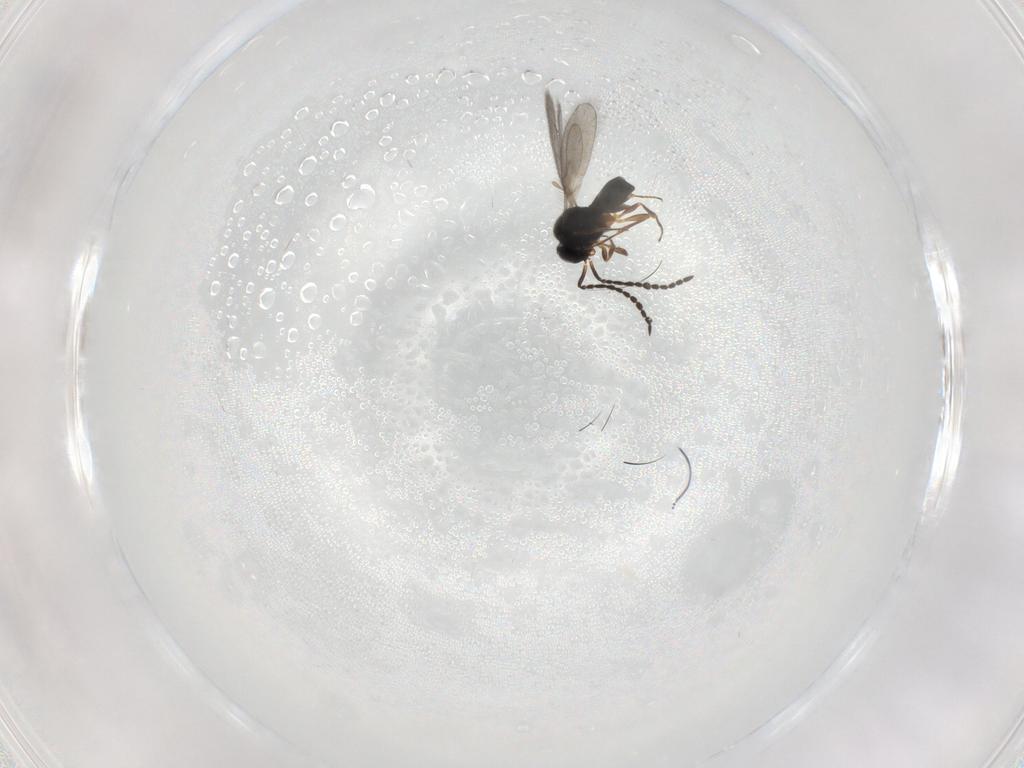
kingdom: Animalia
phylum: Arthropoda
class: Insecta
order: Hymenoptera
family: Scelionidae
